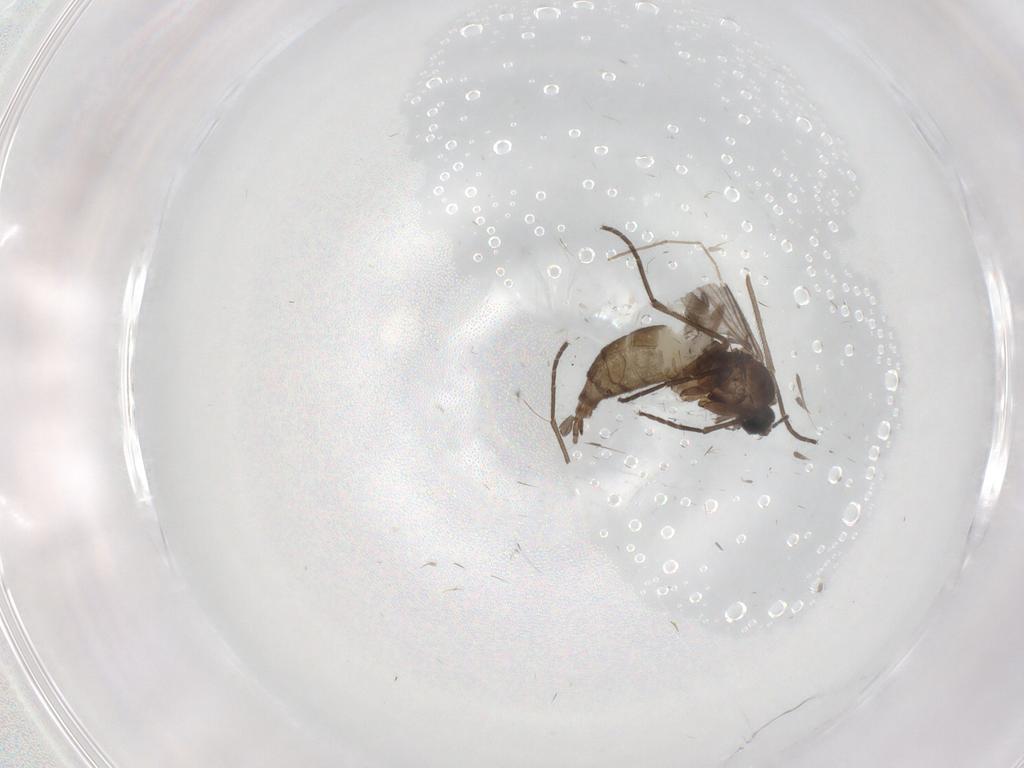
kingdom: Animalia
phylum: Arthropoda
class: Insecta
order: Diptera
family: Sciaridae
